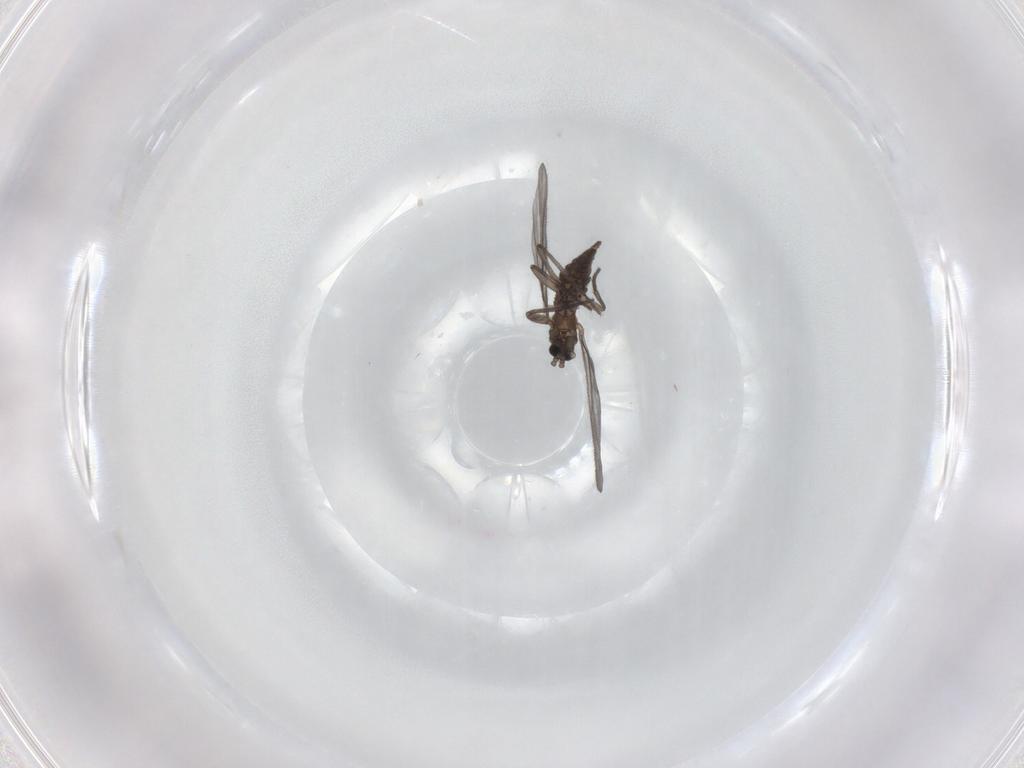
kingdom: Animalia
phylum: Arthropoda
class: Insecta
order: Diptera
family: Sciaridae
